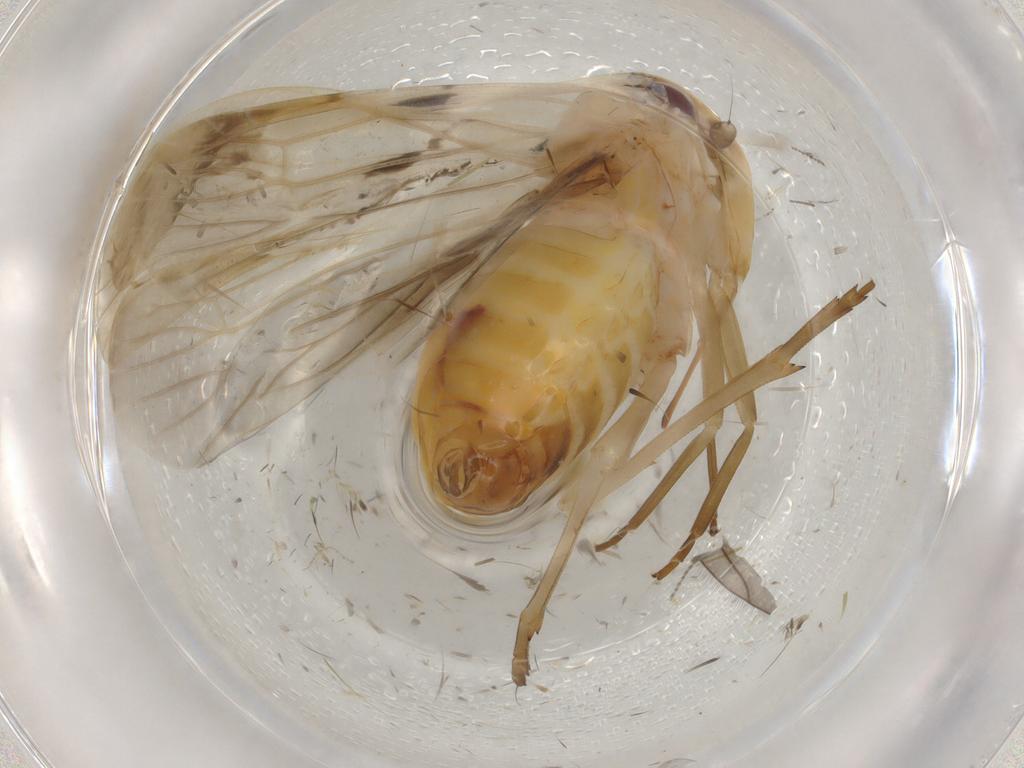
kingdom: Animalia
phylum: Arthropoda
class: Insecta
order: Hemiptera
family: Achilidae
